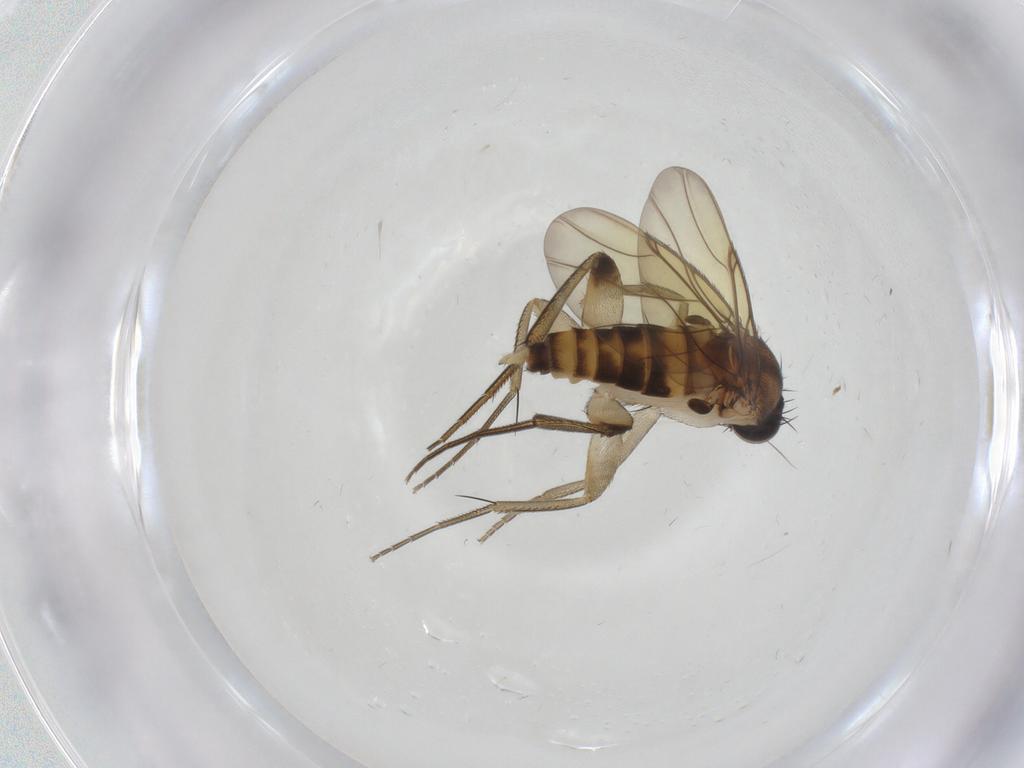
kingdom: Animalia
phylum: Arthropoda
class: Insecta
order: Diptera
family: Phoridae
